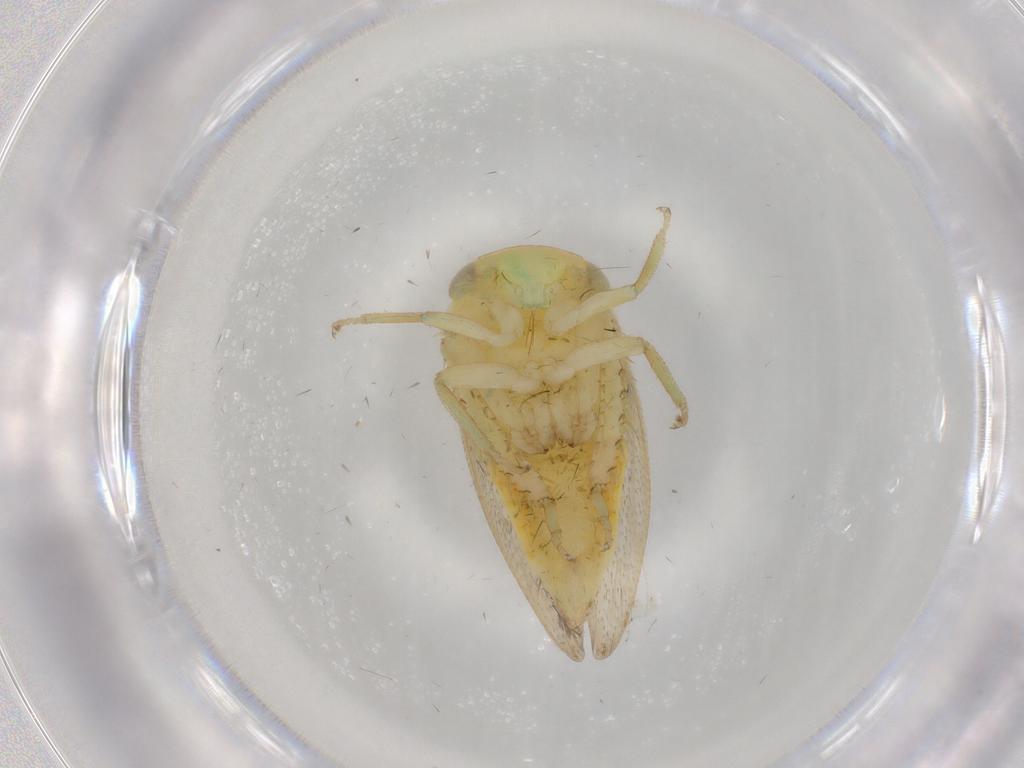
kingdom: Animalia
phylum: Arthropoda
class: Insecta
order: Hemiptera
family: Cicadellidae
